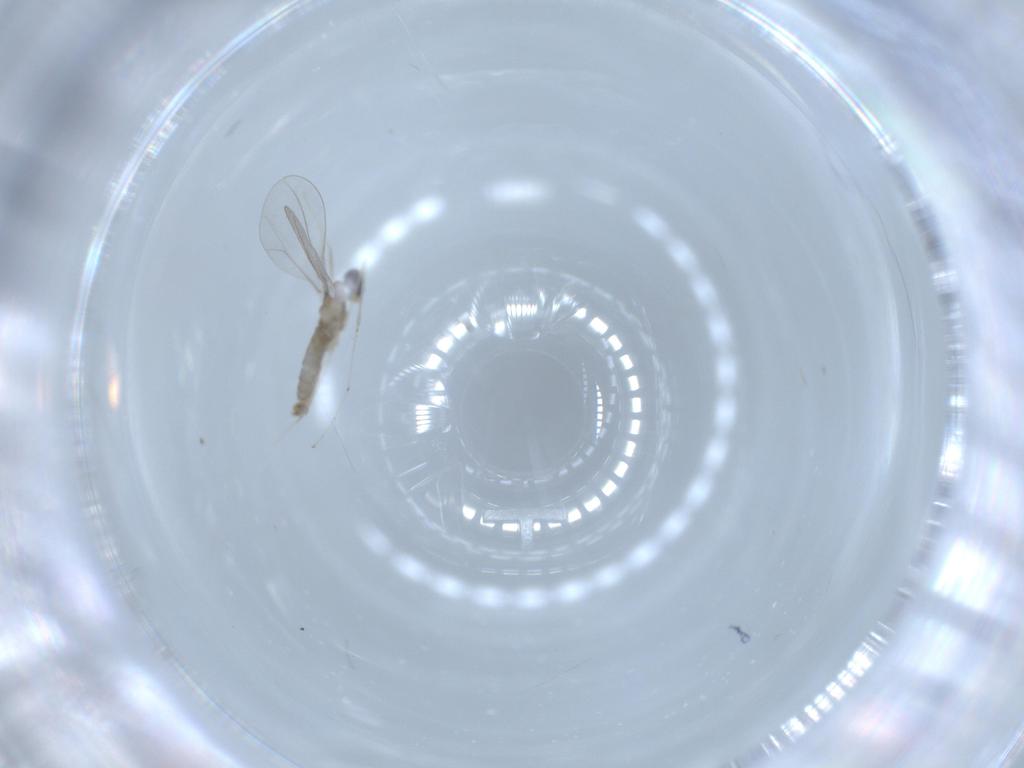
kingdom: Animalia
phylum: Arthropoda
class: Insecta
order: Diptera
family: Cecidomyiidae
